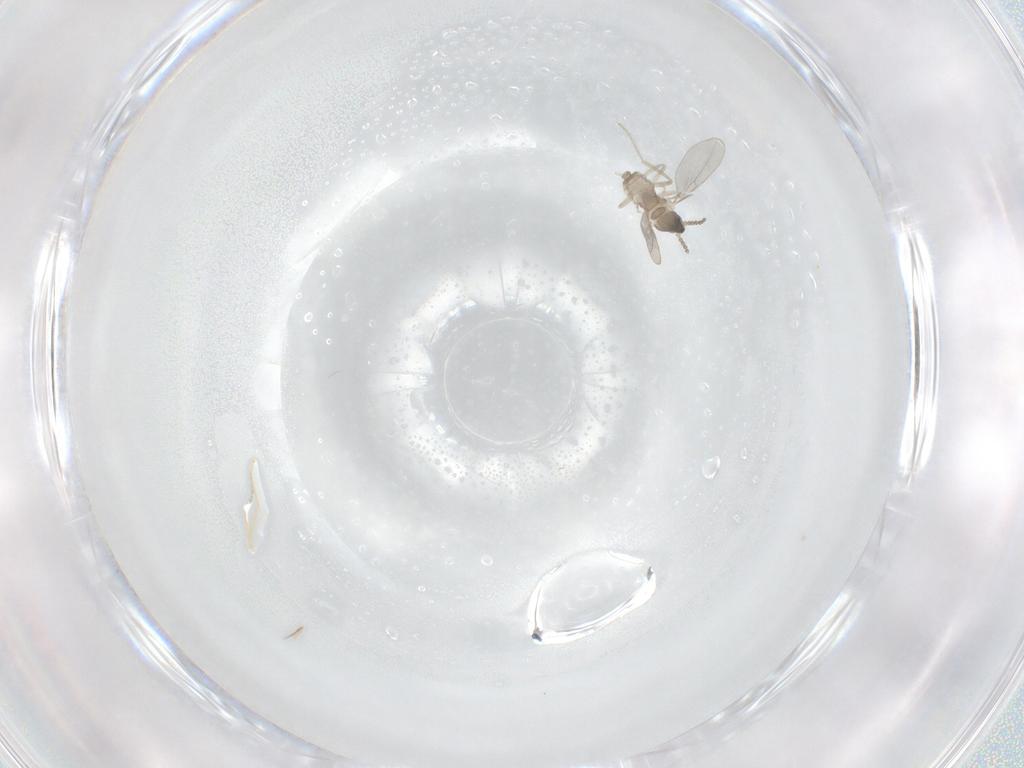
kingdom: Animalia
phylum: Arthropoda
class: Insecta
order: Diptera
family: Cecidomyiidae
